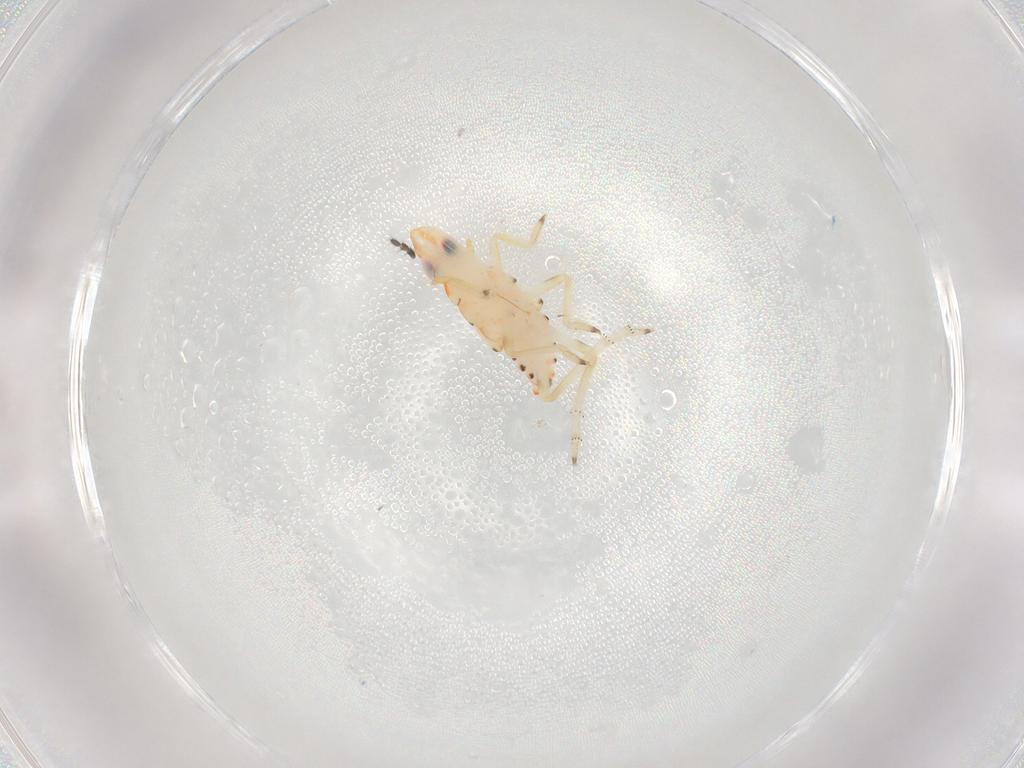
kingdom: Animalia
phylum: Arthropoda
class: Insecta
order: Hemiptera
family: Tropiduchidae
